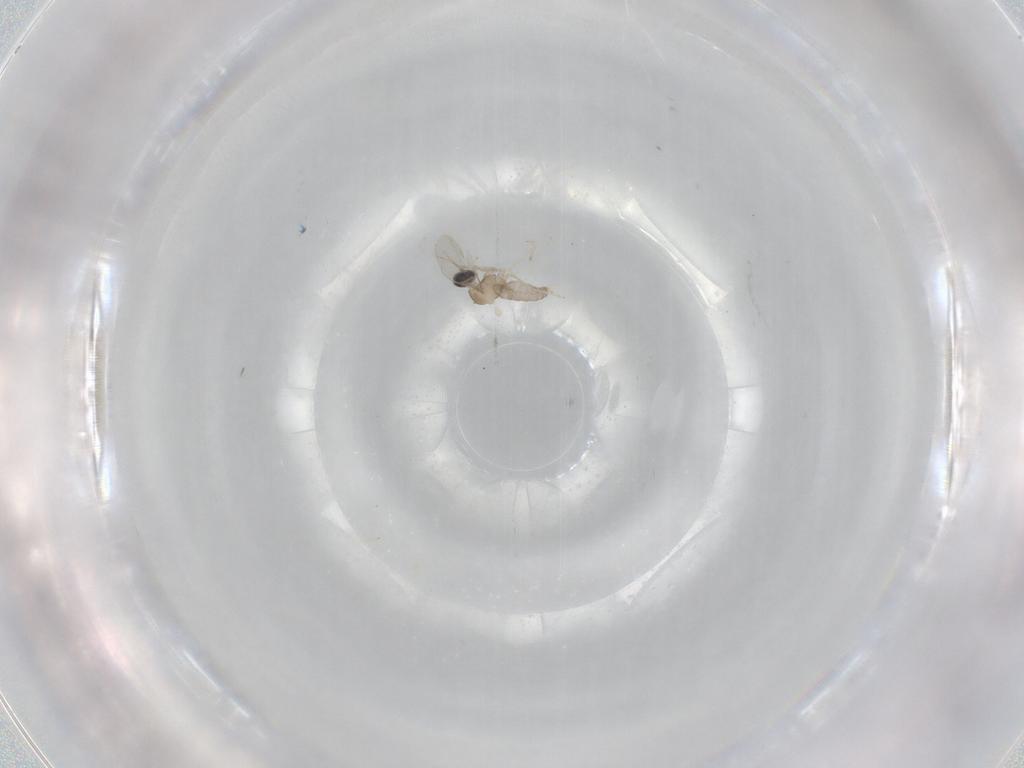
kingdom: Animalia
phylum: Arthropoda
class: Insecta
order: Diptera
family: Cecidomyiidae
